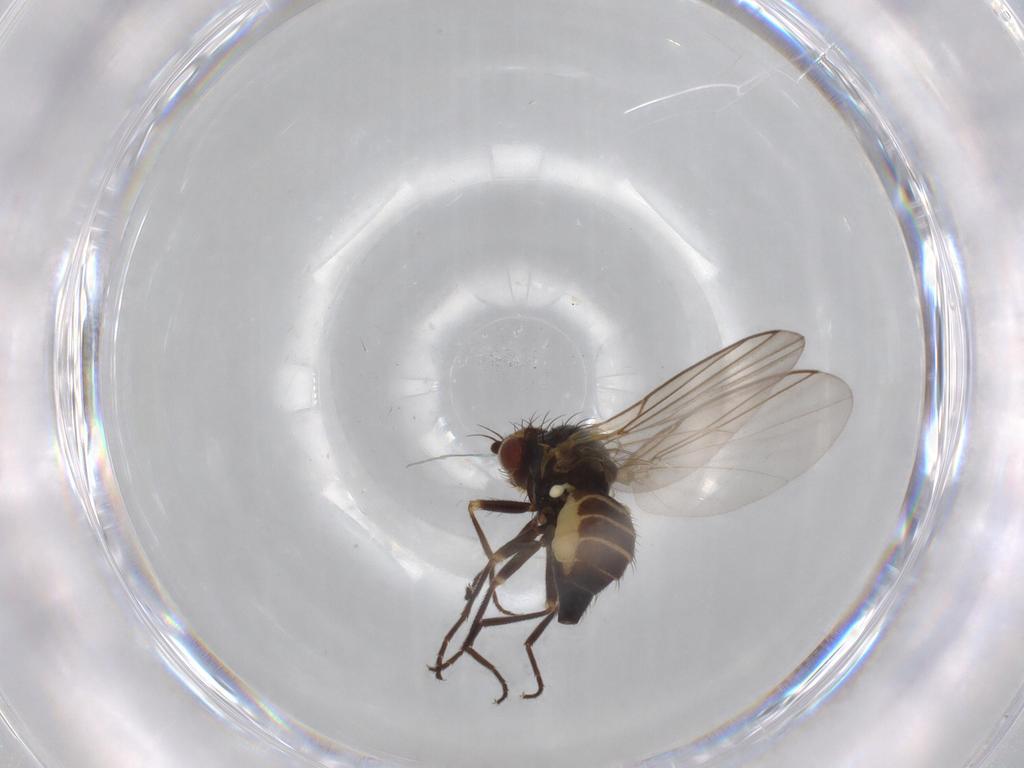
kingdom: Animalia
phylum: Arthropoda
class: Insecta
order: Diptera
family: Agromyzidae
